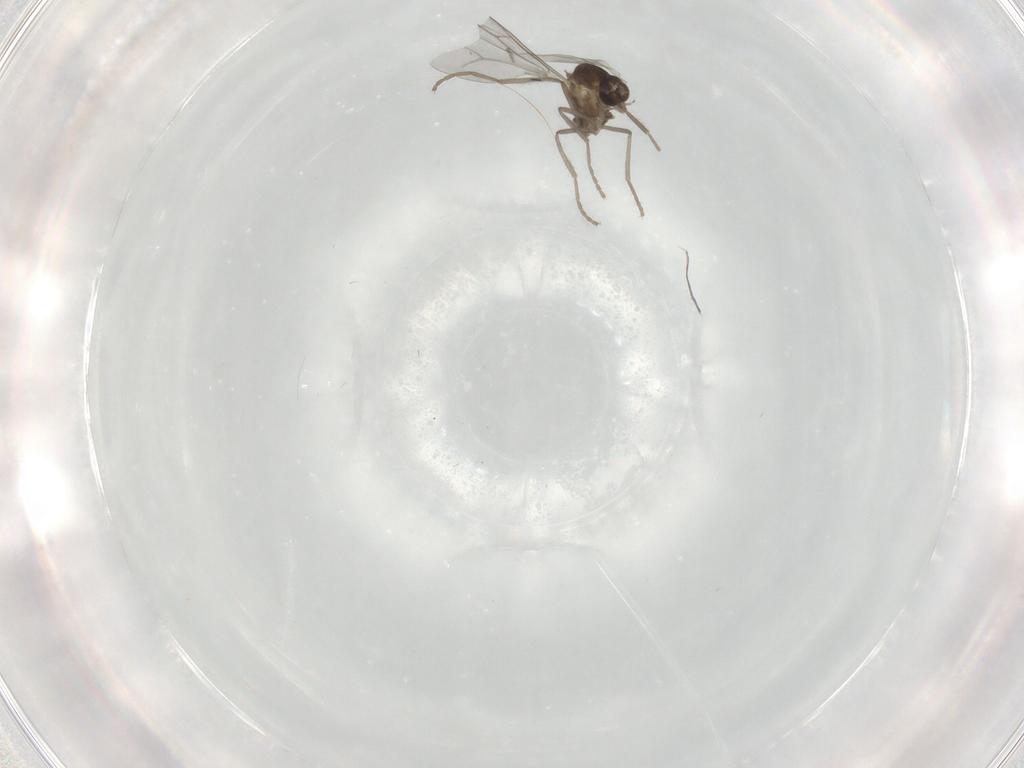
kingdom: Animalia
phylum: Arthropoda
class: Insecta
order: Diptera
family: Cecidomyiidae
